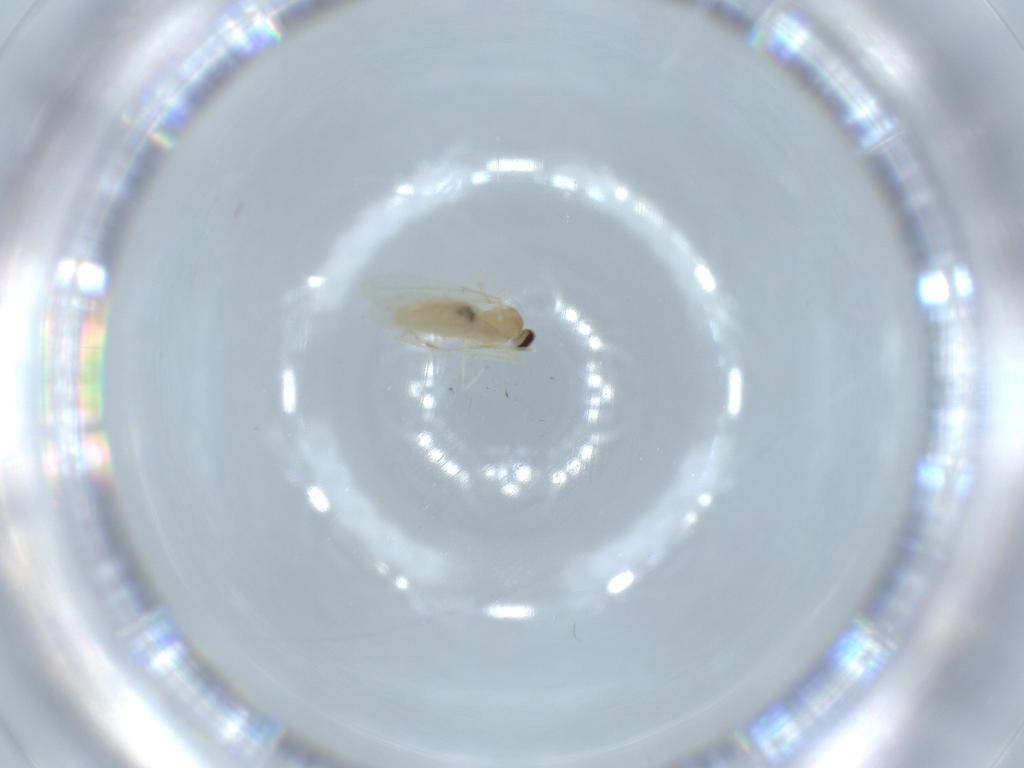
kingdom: Animalia
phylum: Arthropoda
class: Insecta
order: Diptera
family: Cecidomyiidae
